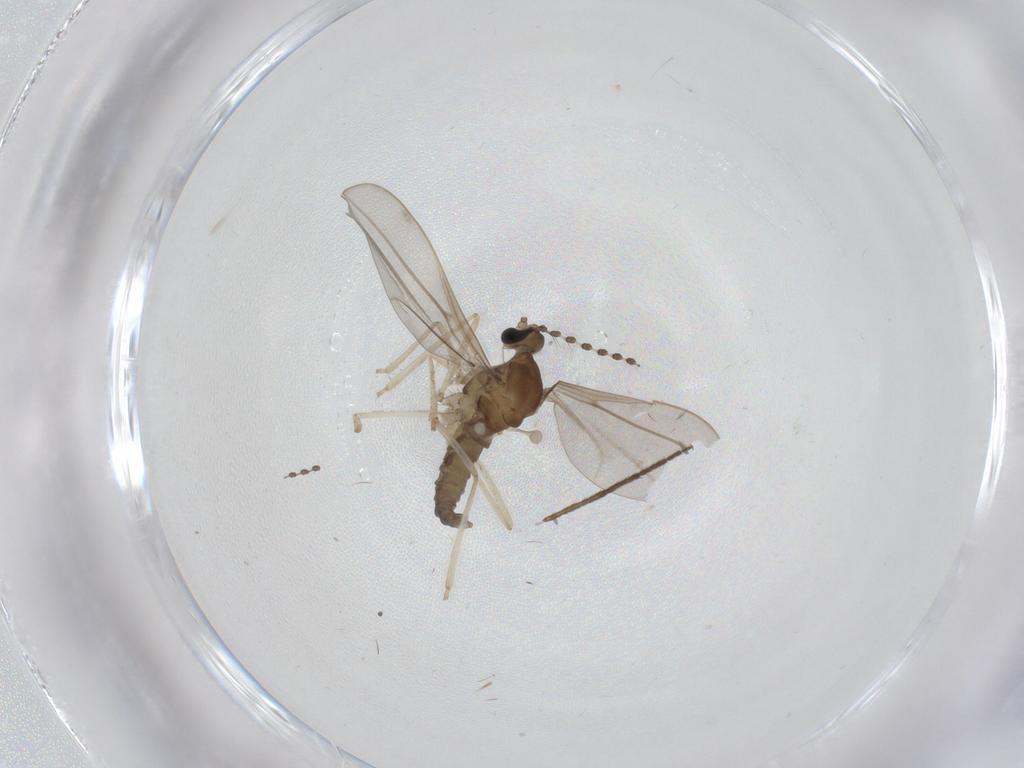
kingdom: Animalia
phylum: Arthropoda
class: Insecta
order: Diptera
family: Cecidomyiidae
